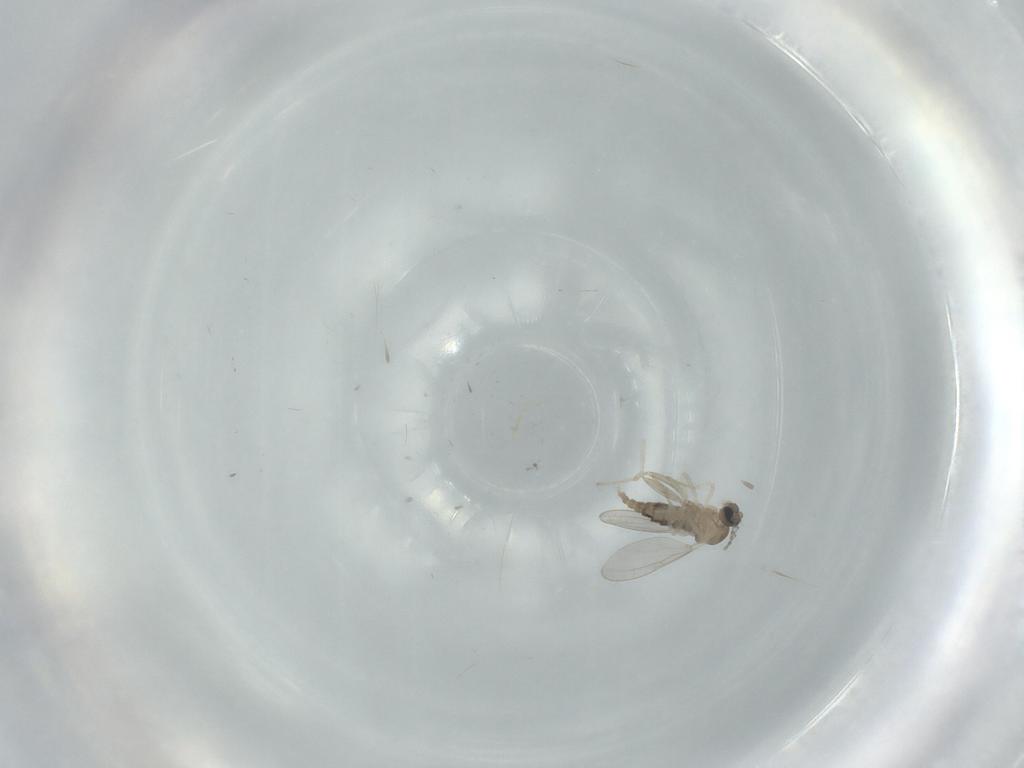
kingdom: Animalia
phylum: Arthropoda
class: Insecta
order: Diptera
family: Cecidomyiidae
